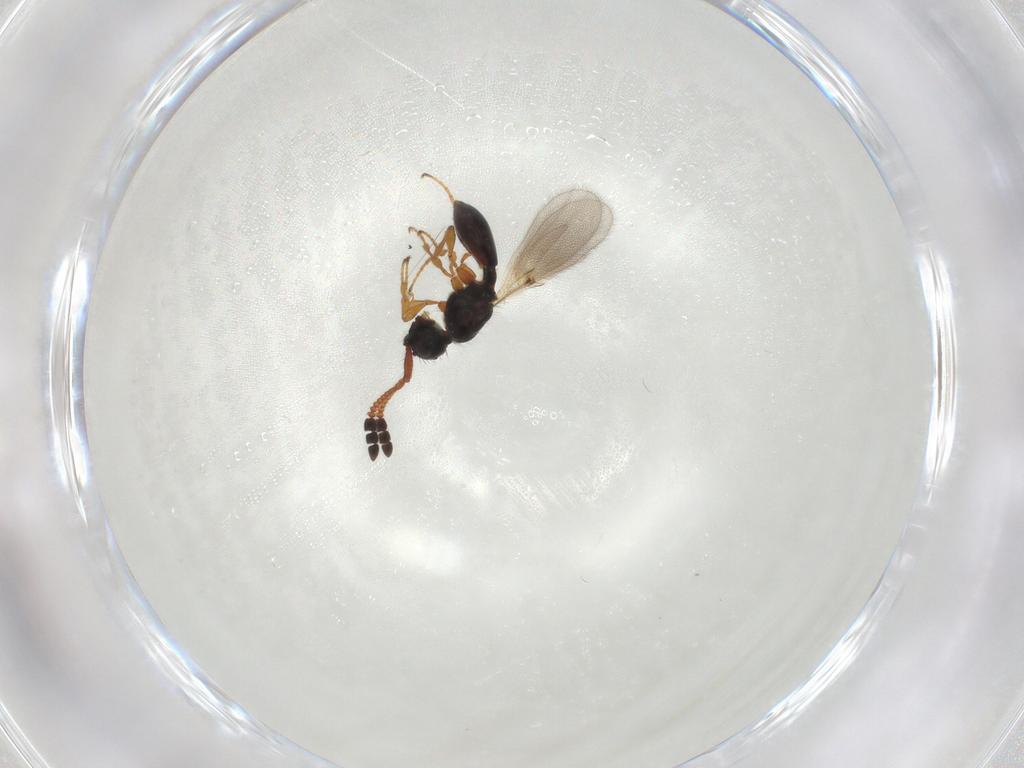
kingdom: Animalia
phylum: Arthropoda
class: Insecta
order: Hymenoptera
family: Diapriidae
